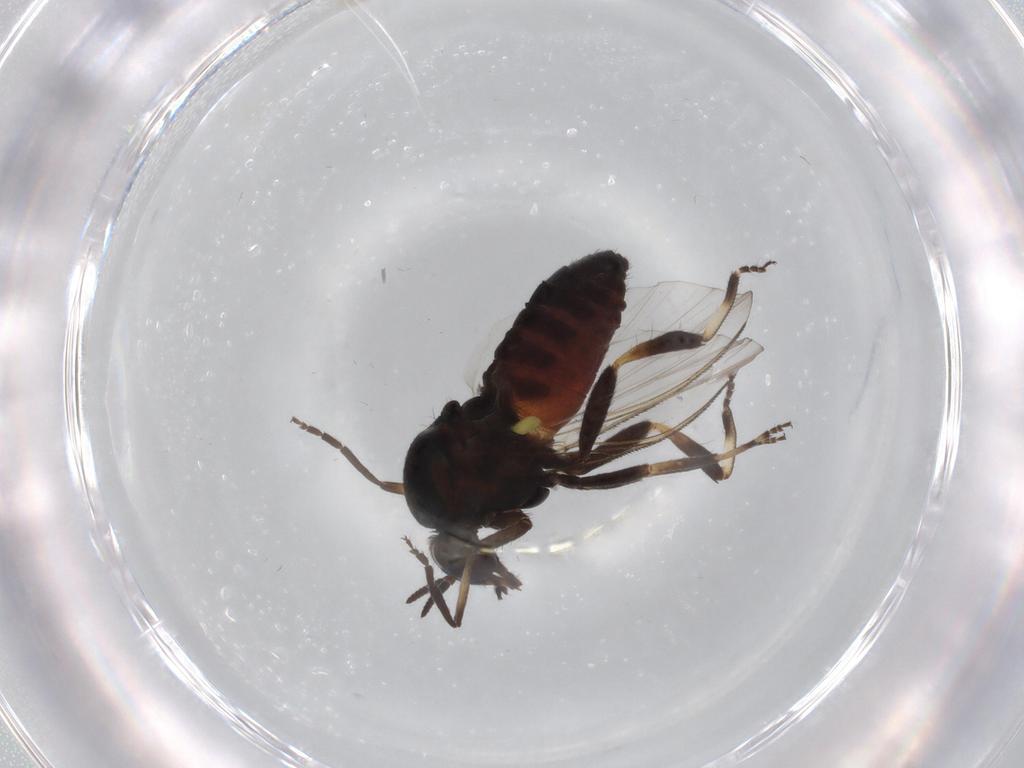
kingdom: Animalia
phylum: Arthropoda
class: Insecta
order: Diptera
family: Simuliidae
